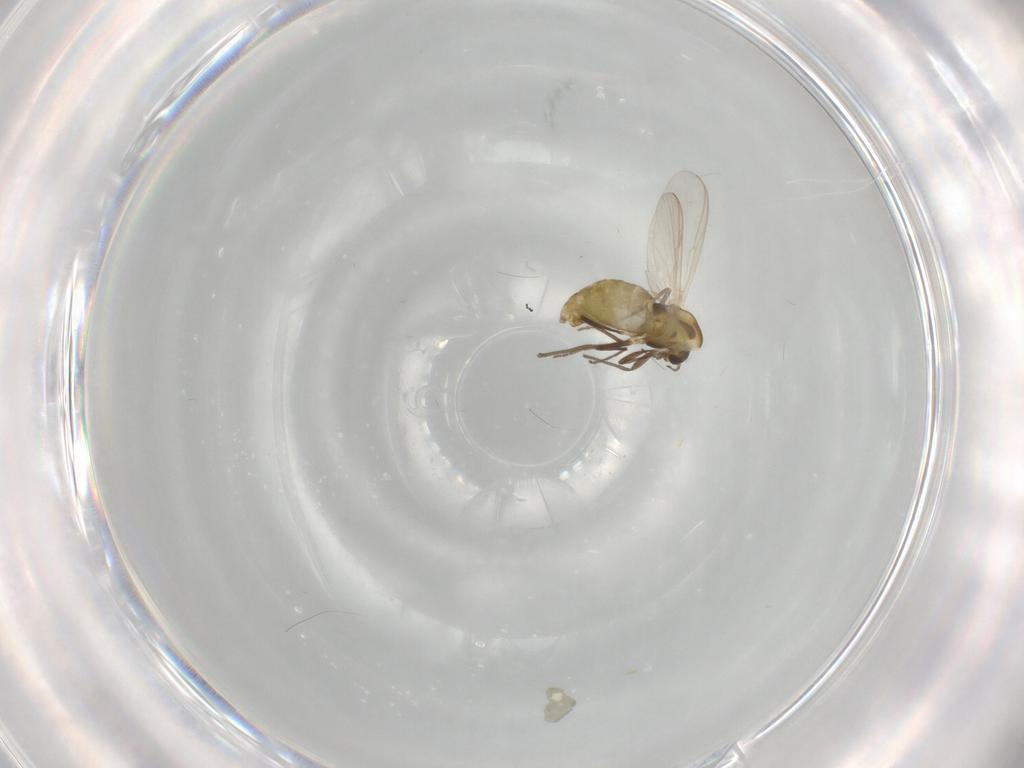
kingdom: Animalia
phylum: Arthropoda
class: Insecta
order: Diptera
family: Chironomidae
